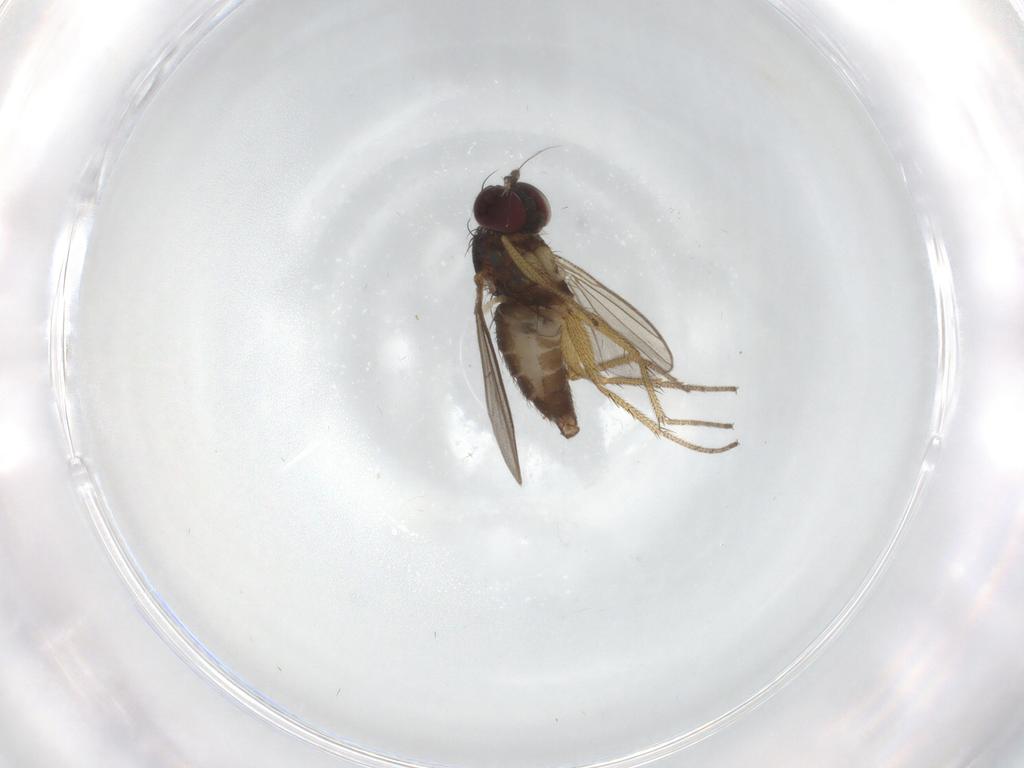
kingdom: Animalia
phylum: Arthropoda
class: Insecta
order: Diptera
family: Dolichopodidae
